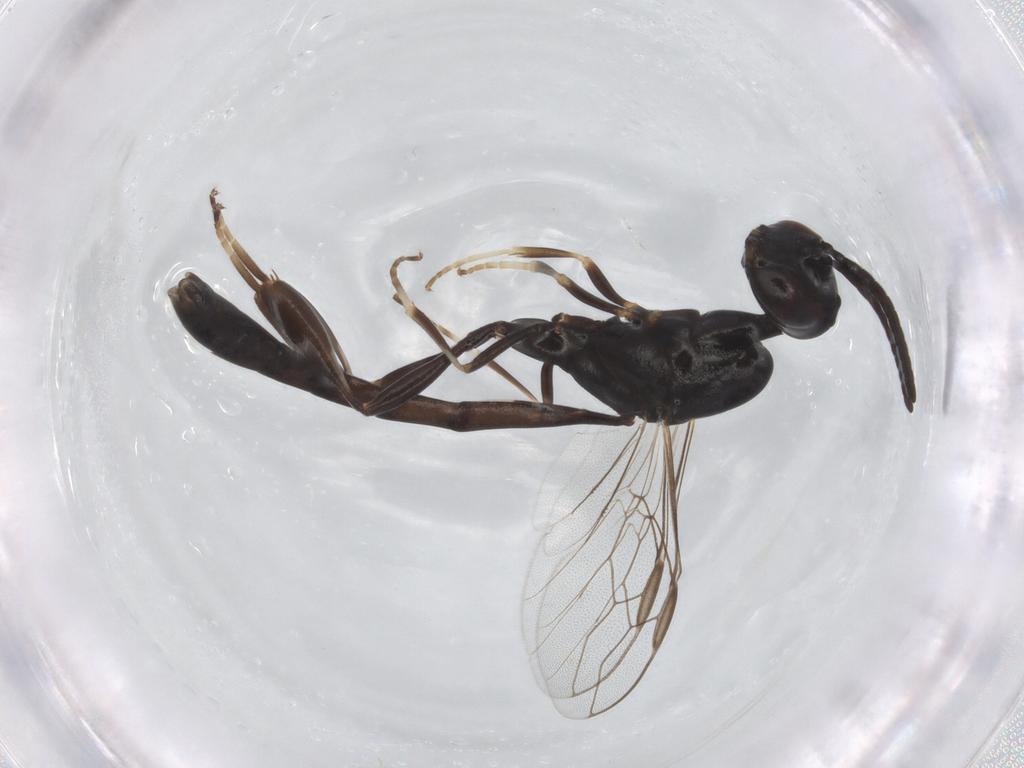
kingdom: Animalia
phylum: Arthropoda
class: Insecta
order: Hymenoptera
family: Gasteruptiidae
